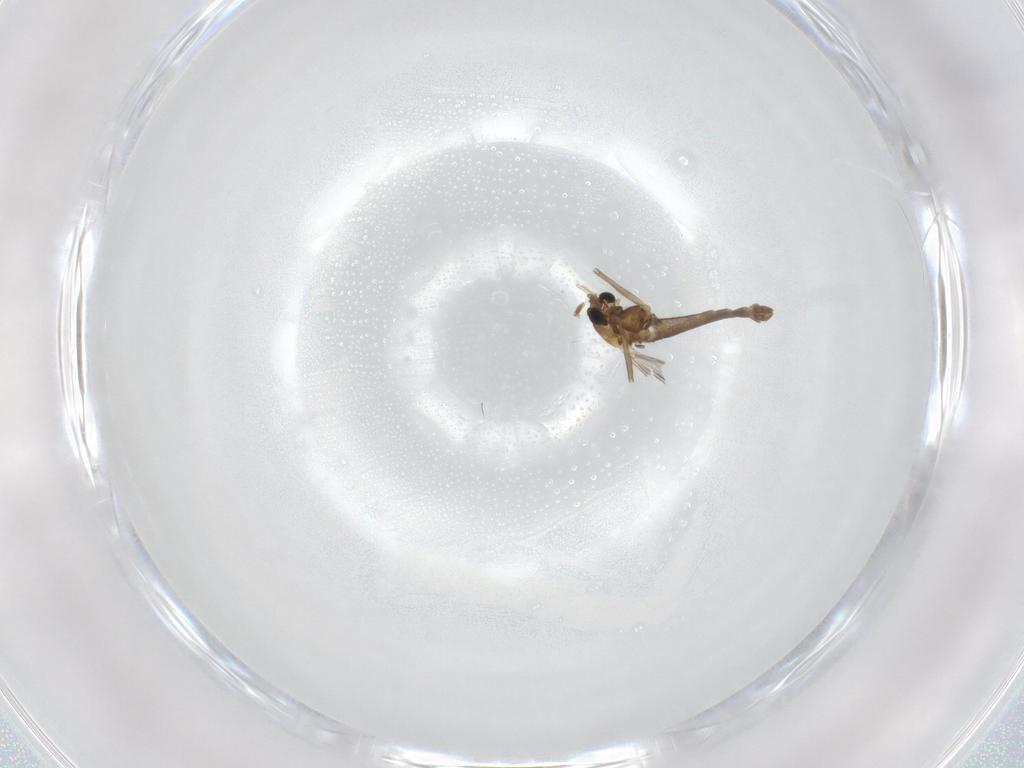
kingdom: Animalia
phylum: Arthropoda
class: Insecta
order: Diptera
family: Chironomidae
